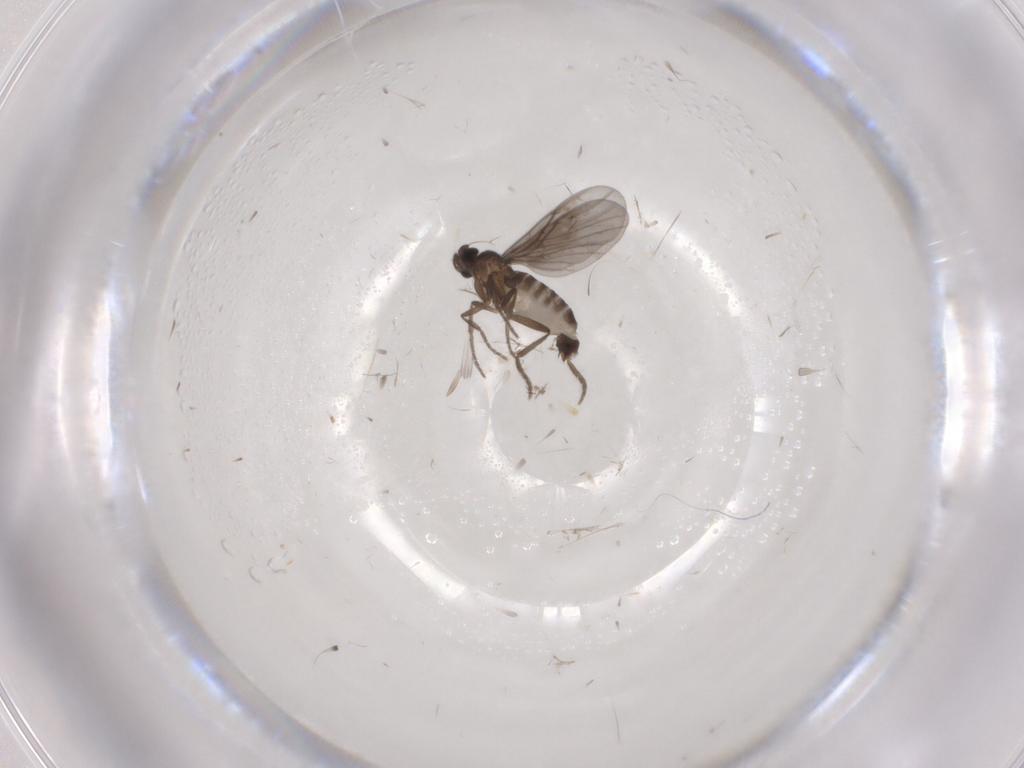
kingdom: Animalia
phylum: Arthropoda
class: Insecta
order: Diptera
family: Phoridae
